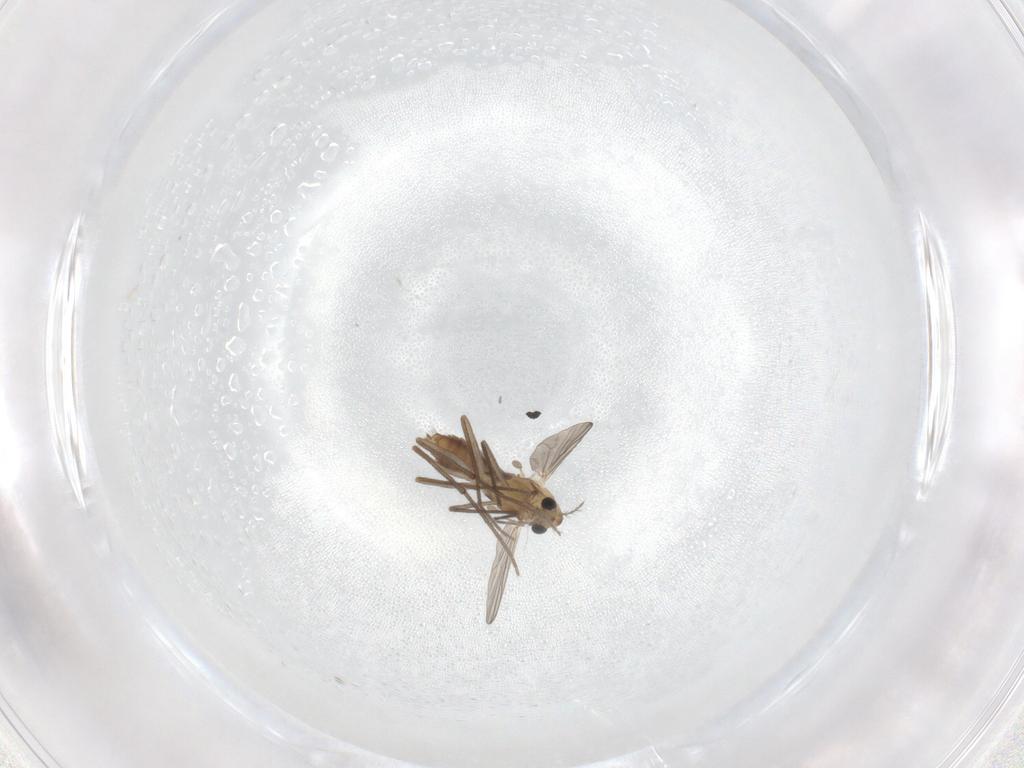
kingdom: Animalia
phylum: Arthropoda
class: Insecta
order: Diptera
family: Chironomidae
